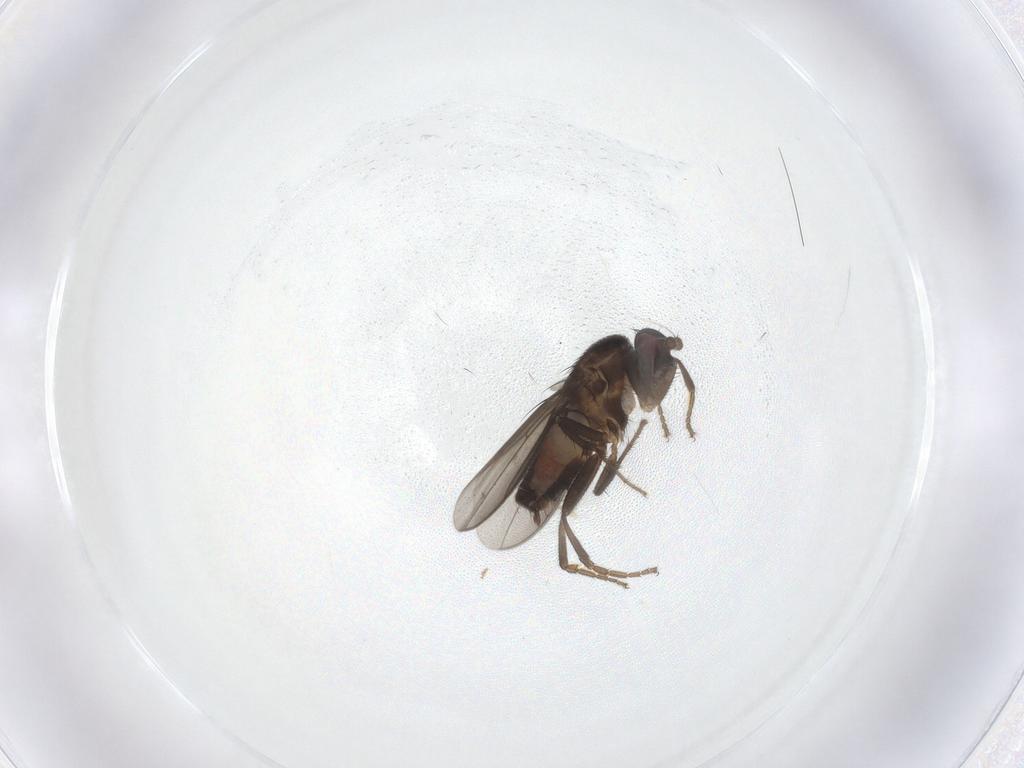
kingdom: Animalia
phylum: Arthropoda
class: Insecta
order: Diptera
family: Sphaeroceridae
